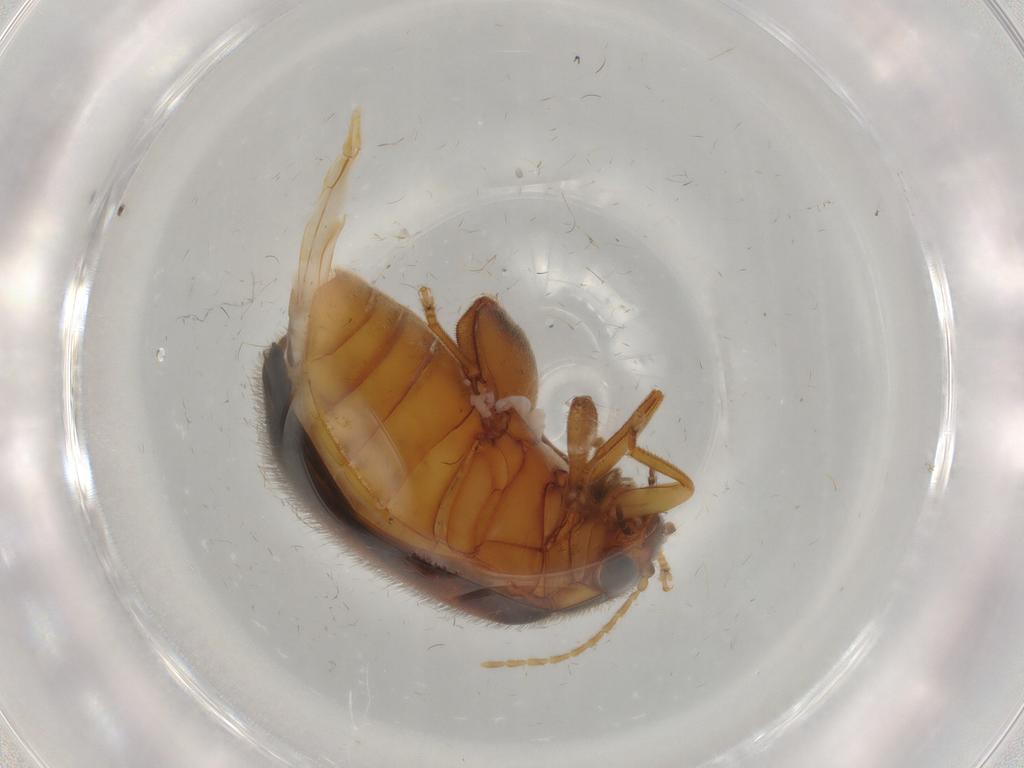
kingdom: Animalia
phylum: Arthropoda
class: Insecta
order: Coleoptera
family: Scirtidae
